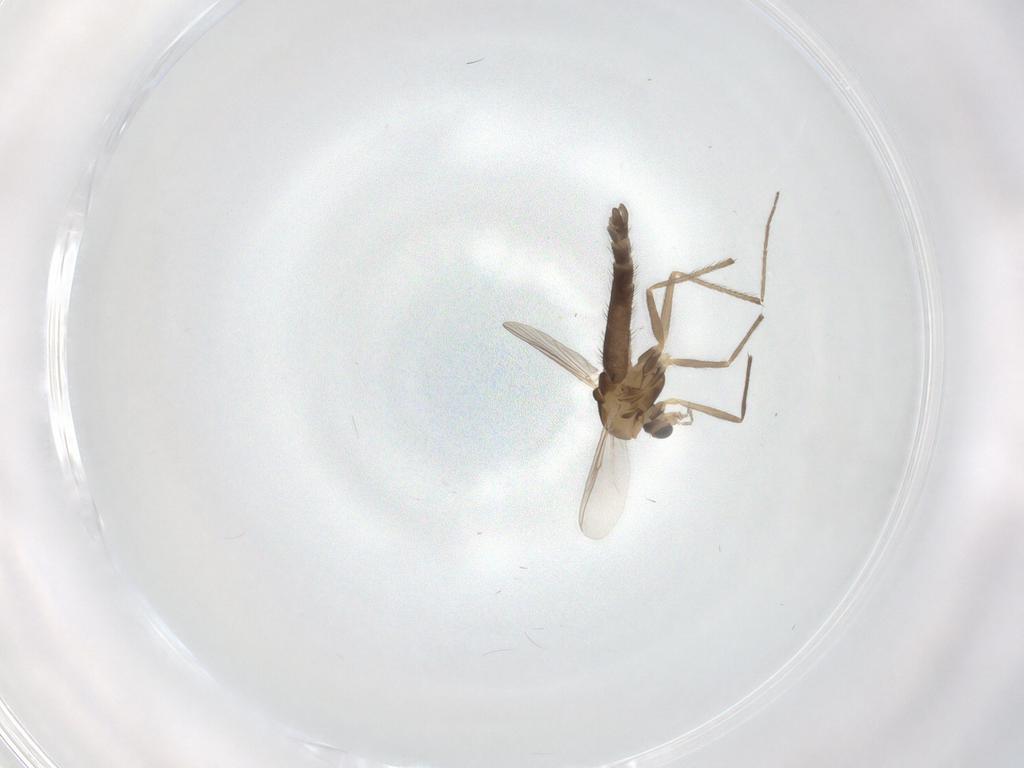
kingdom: Animalia
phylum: Arthropoda
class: Insecta
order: Diptera
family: Chironomidae
